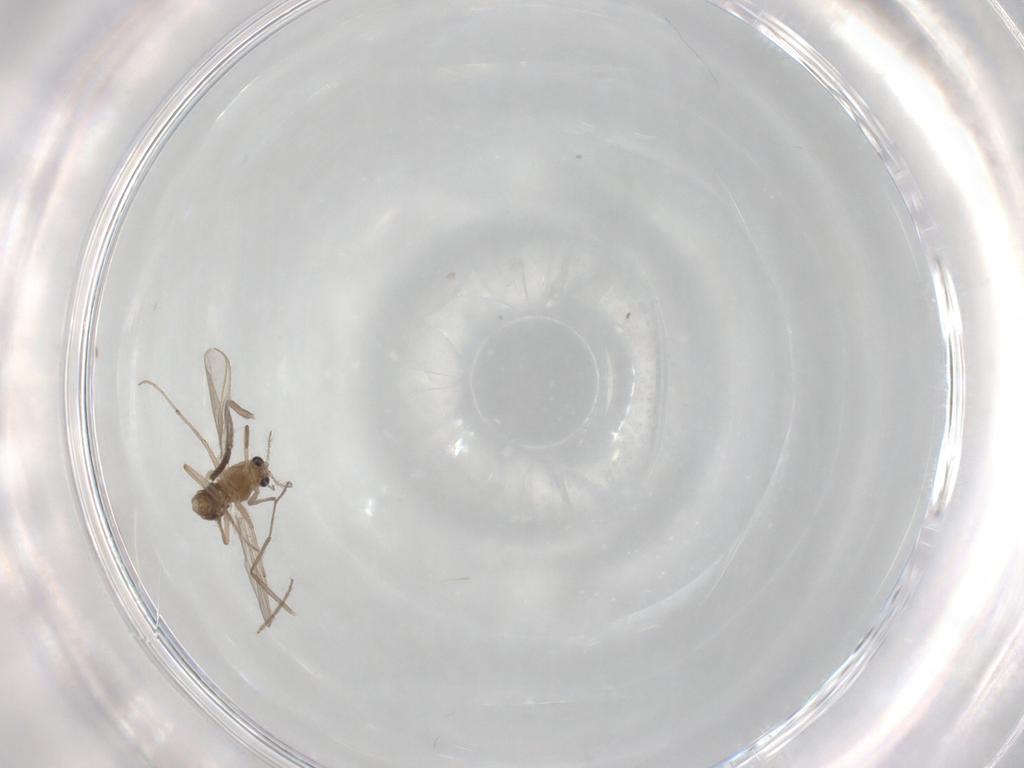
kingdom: Animalia
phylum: Arthropoda
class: Insecta
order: Diptera
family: Chironomidae
